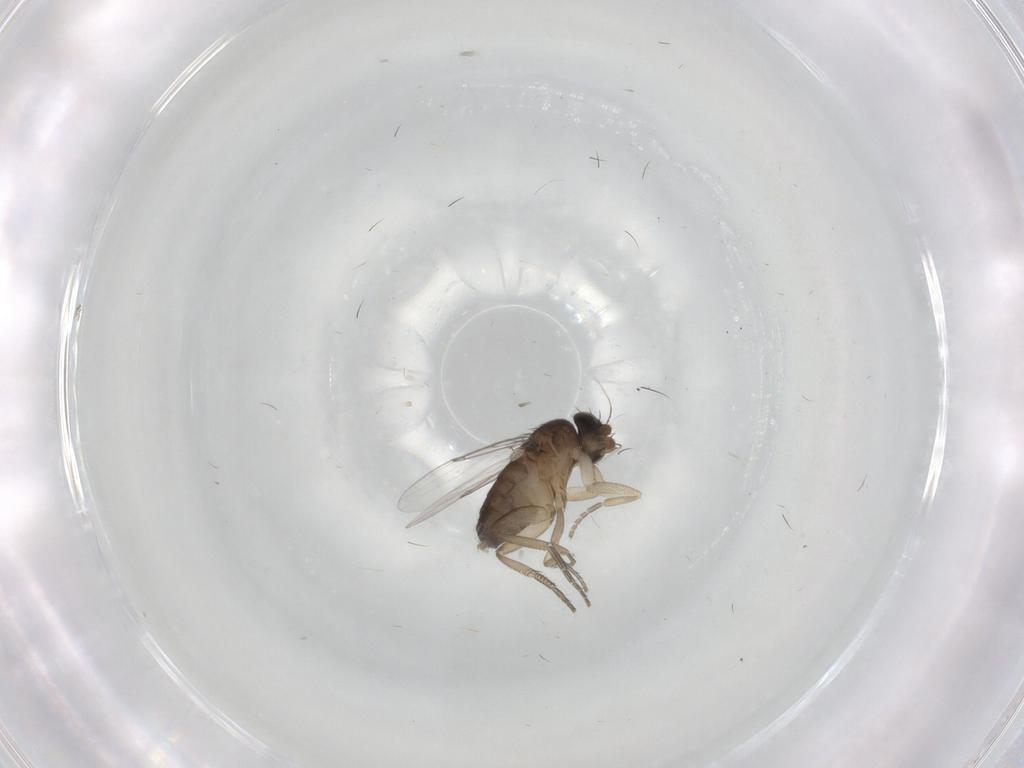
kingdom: Animalia
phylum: Arthropoda
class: Insecta
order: Diptera
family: Phoridae
